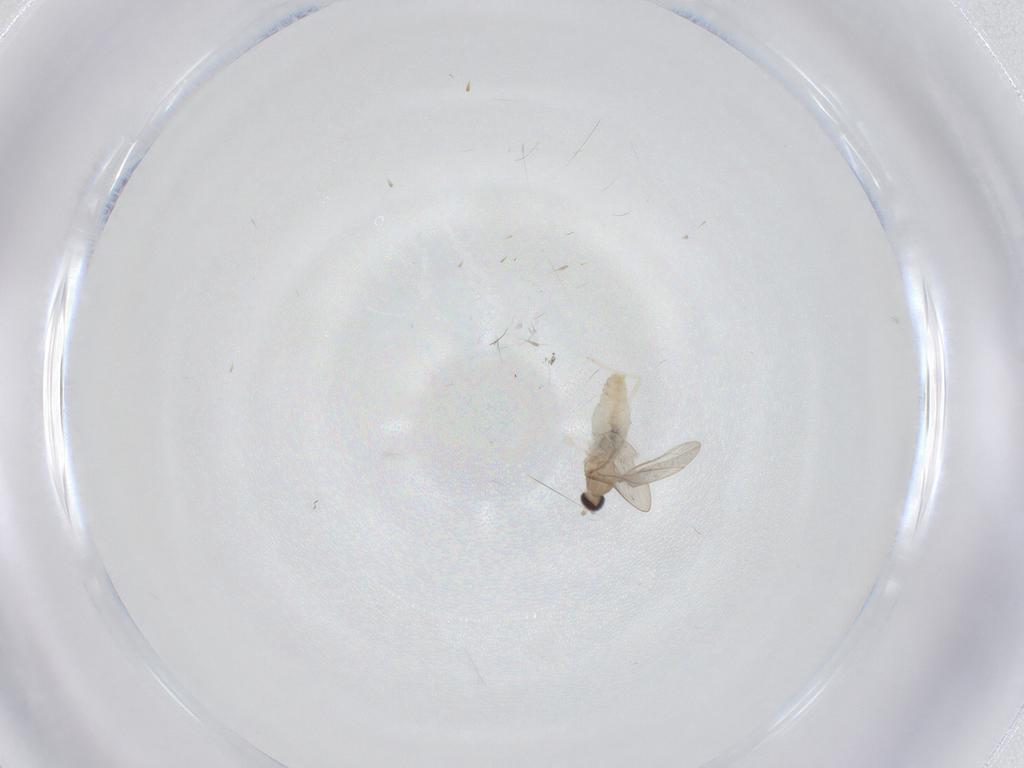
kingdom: Animalia
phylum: Arthropoda
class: Insecta
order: Diptera
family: Cecidomyiidae
